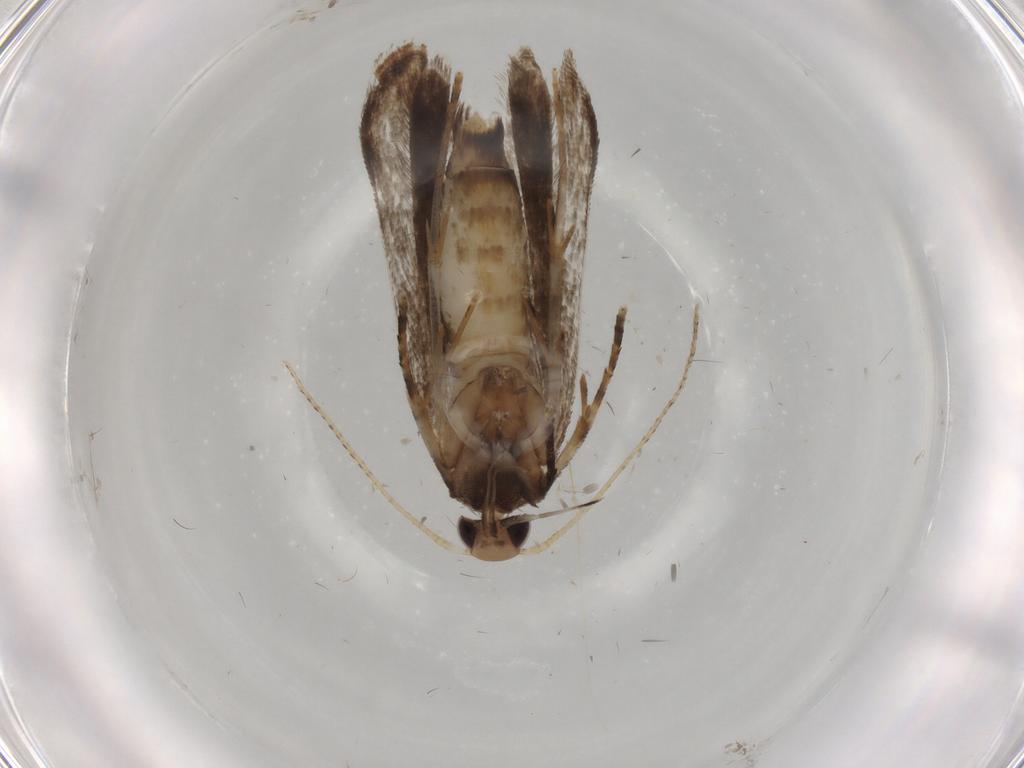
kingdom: Animalia
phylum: Arthropoda
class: Insecta
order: Lepidoptera
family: Gelechiidae
